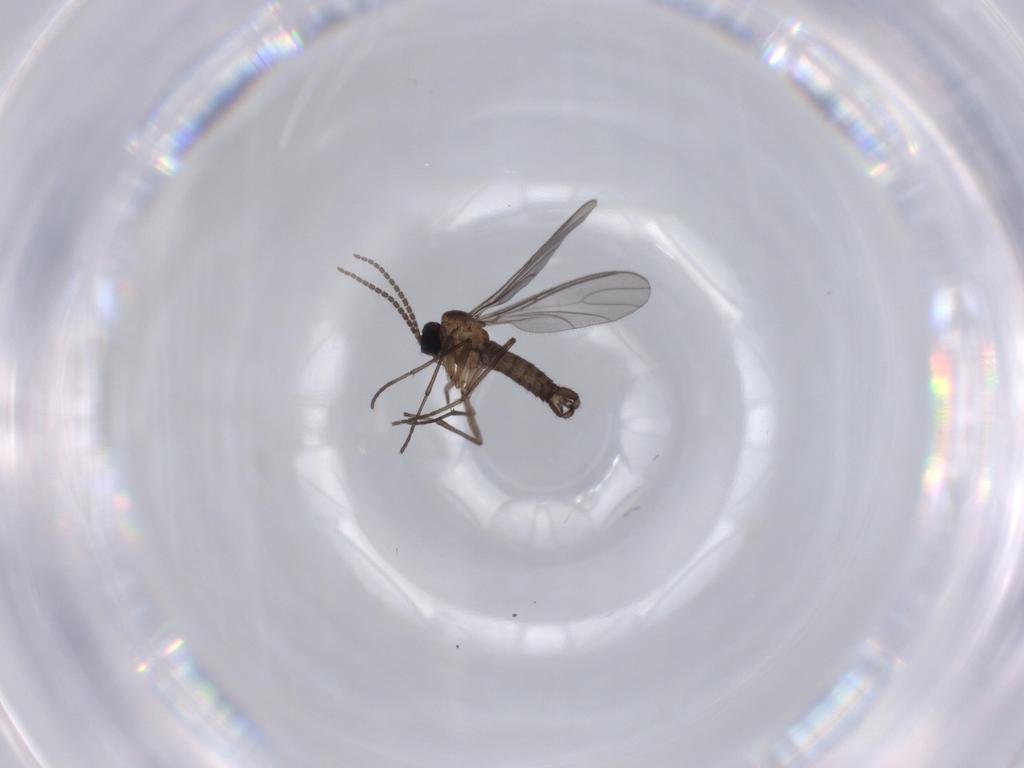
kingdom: Animalia
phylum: Arthropoda
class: Insecta
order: Diptera
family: Sciaridae
